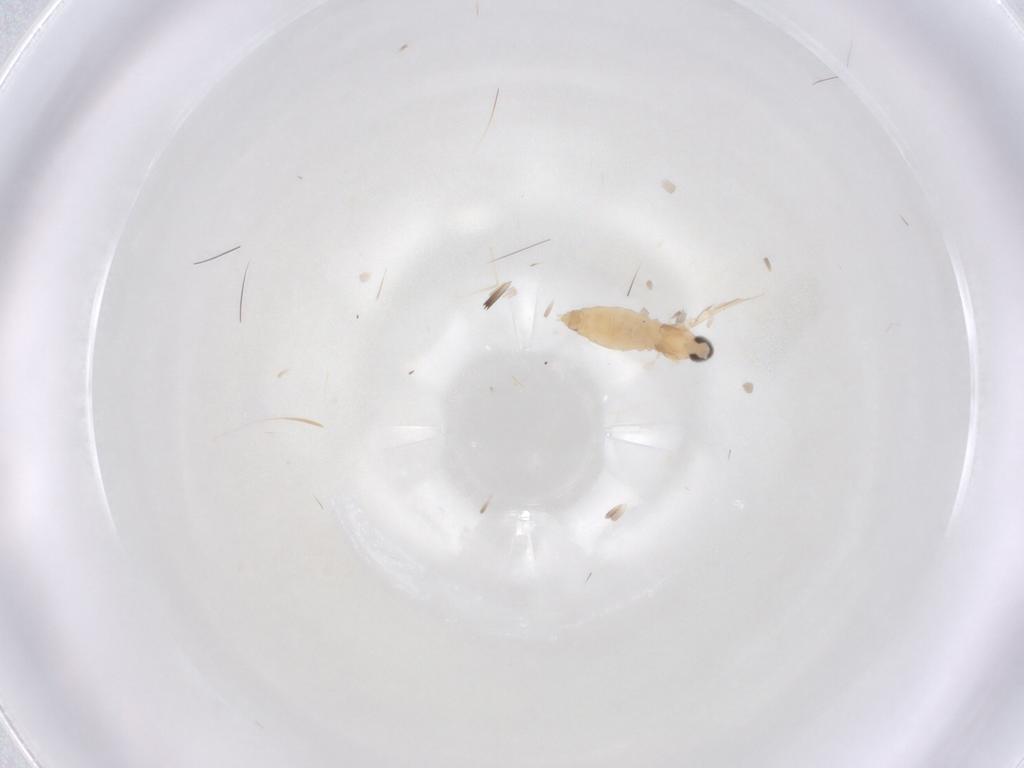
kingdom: Animalia
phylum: Arthropoda
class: Insecta
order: Diptera
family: Cecidomyiidae
